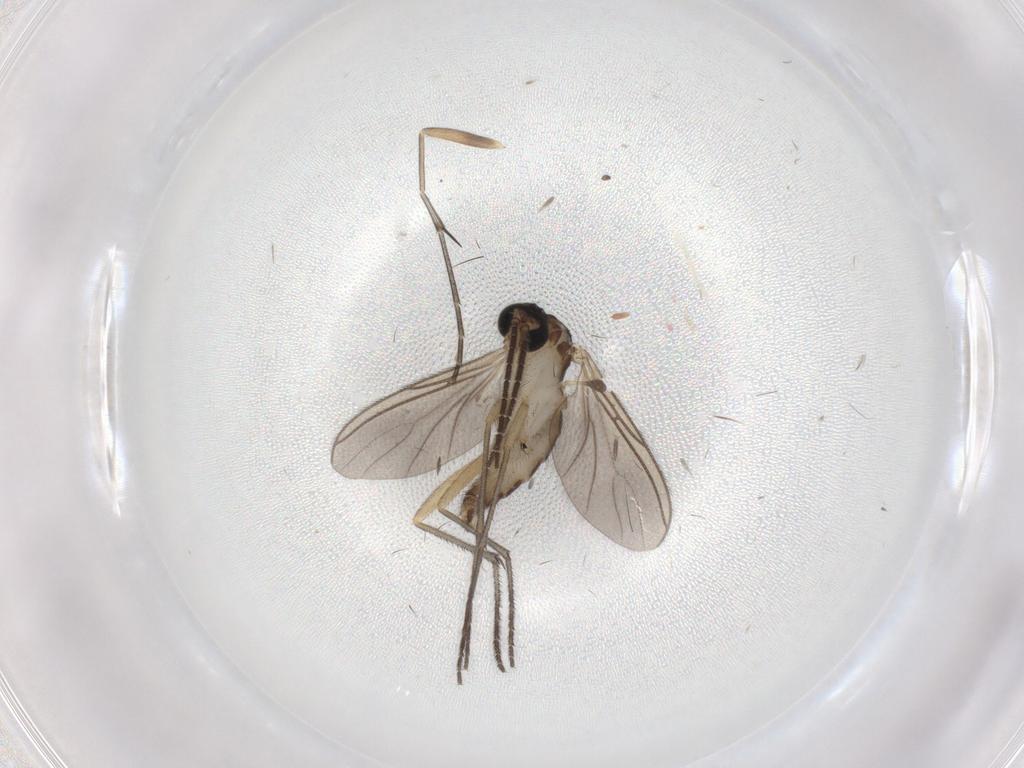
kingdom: Animalia
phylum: Arthropoda
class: Insecta
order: Diptera
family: Sciaridae
